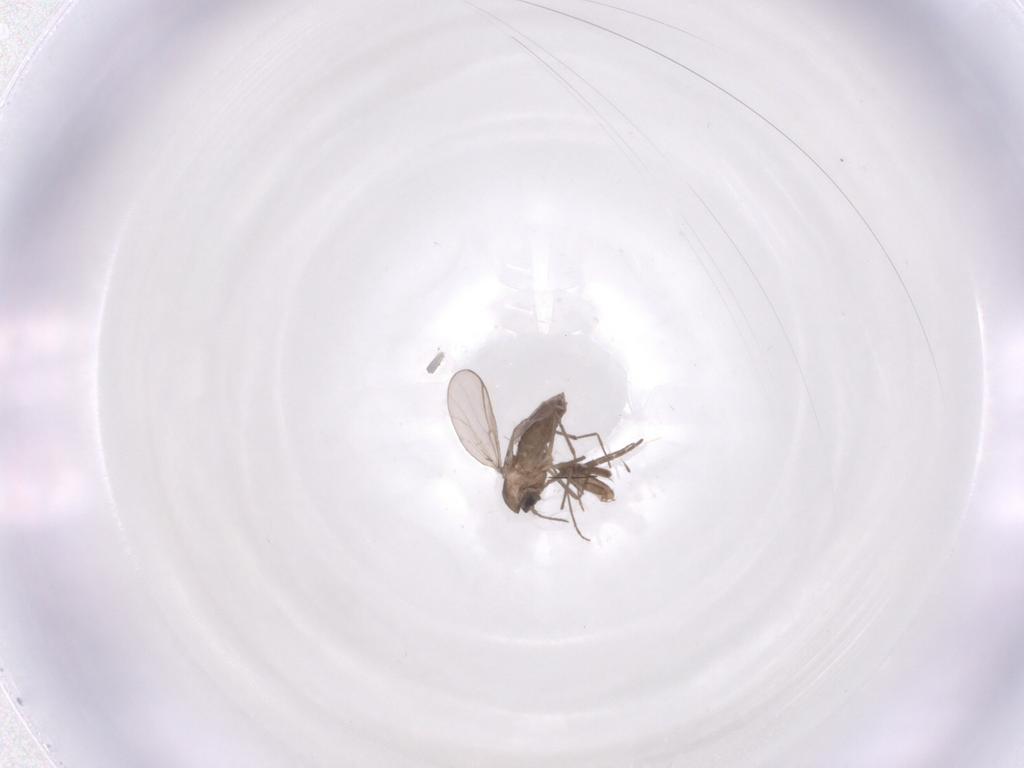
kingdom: Animalia
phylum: Arthropoda
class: Insecta
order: Diptera
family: Chironomidae
